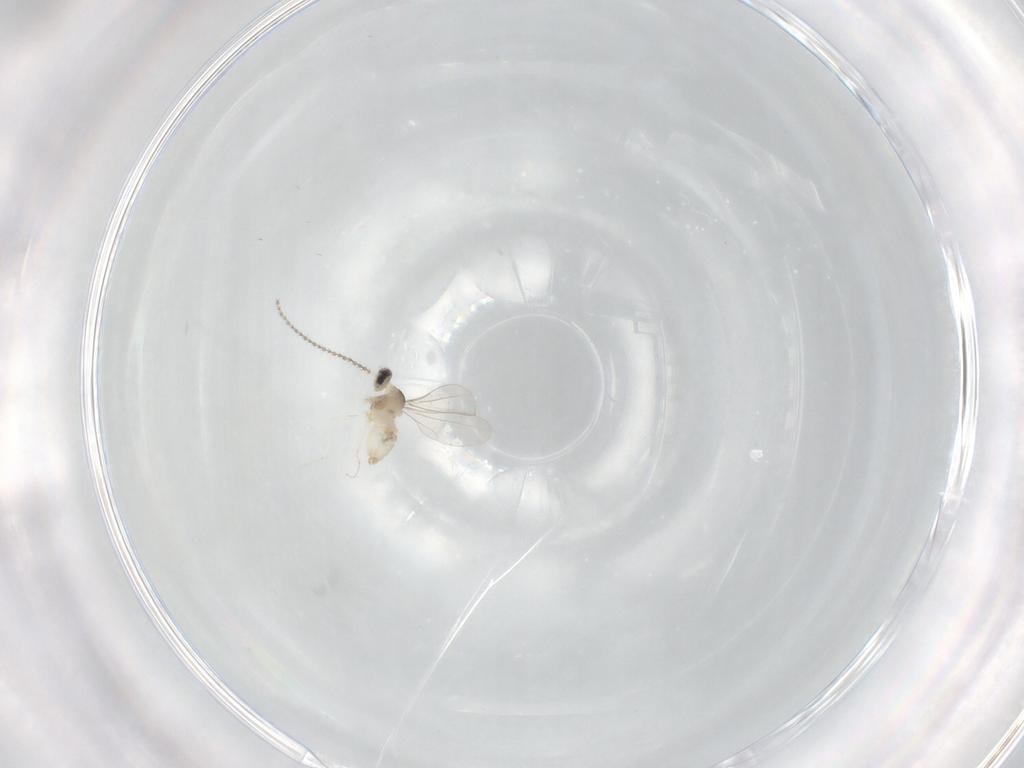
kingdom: Animalia
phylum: Arthropoda
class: Insecta
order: Diptera
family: Cecidomyiidae
